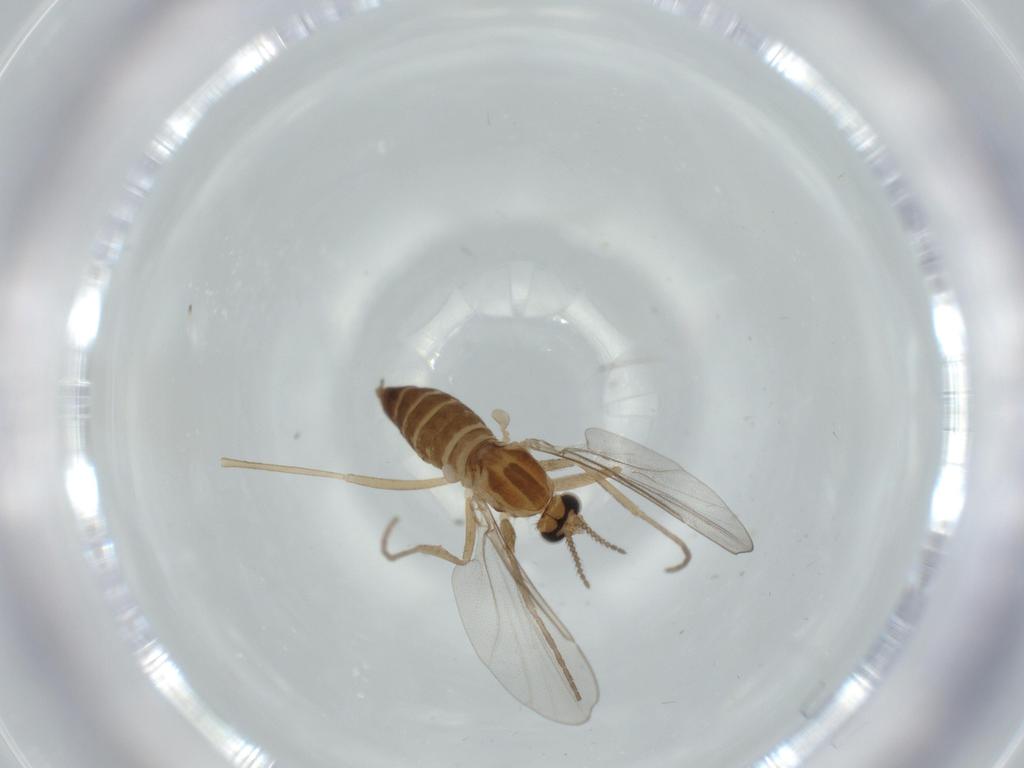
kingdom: Animalia
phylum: Arthropoda
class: Insecta
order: Diptera
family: Cecidomyiidae
